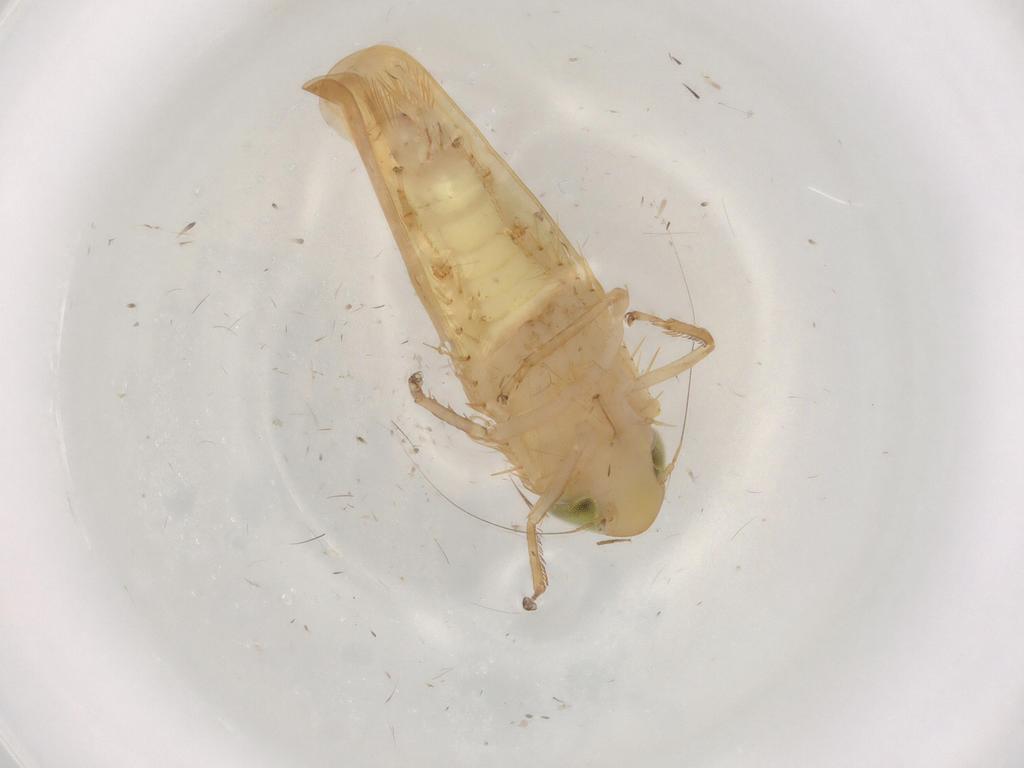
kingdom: Animalia
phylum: Arthropoda
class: Insecta
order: Hemiptera
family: Cicadellidae
